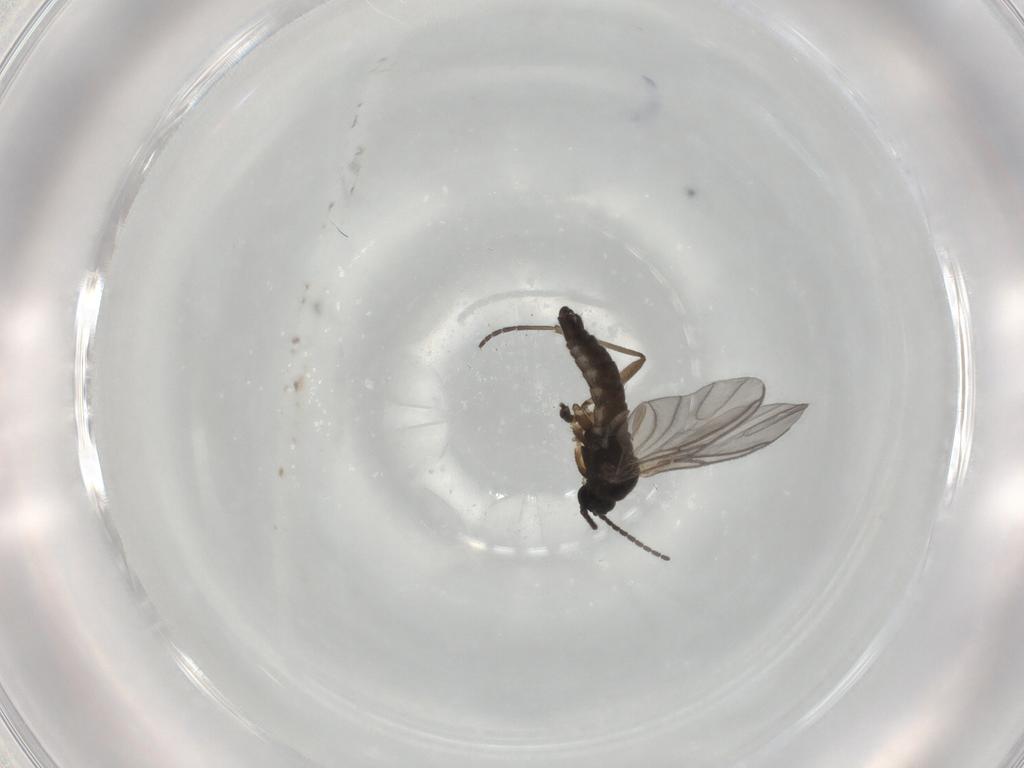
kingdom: Animalia
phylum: Arthropoda
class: Insecta
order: Diptera
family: Sciaridae
